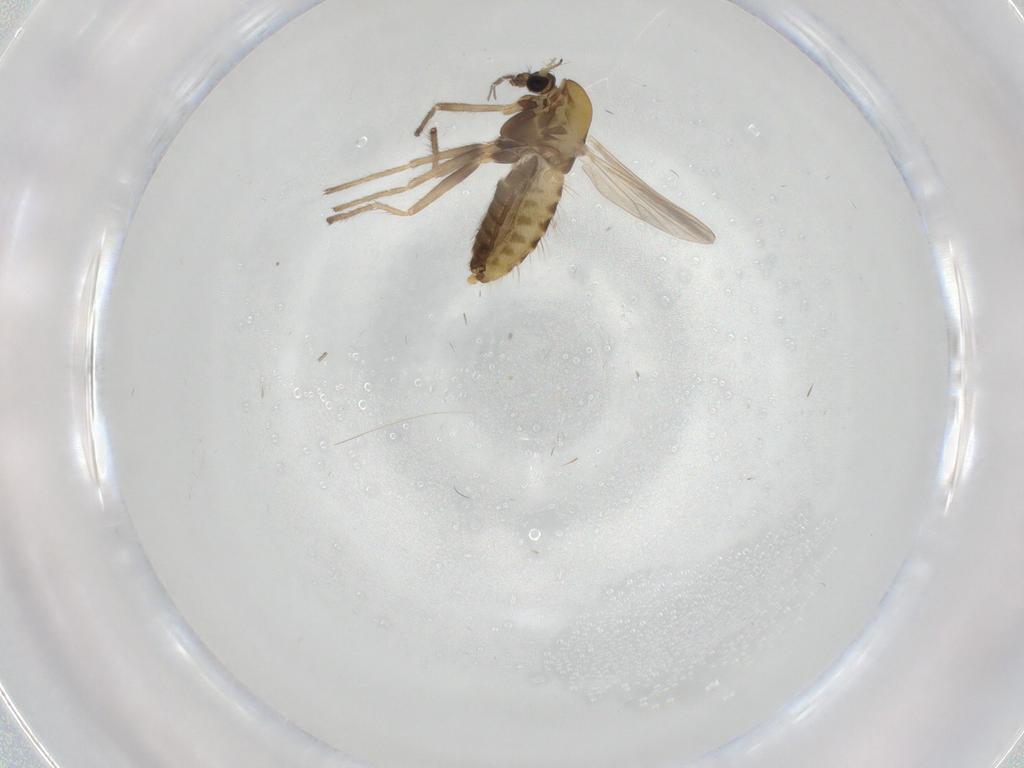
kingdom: Animalia
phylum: Arthropoda
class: Insecta
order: Diptera
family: Chironomidae
